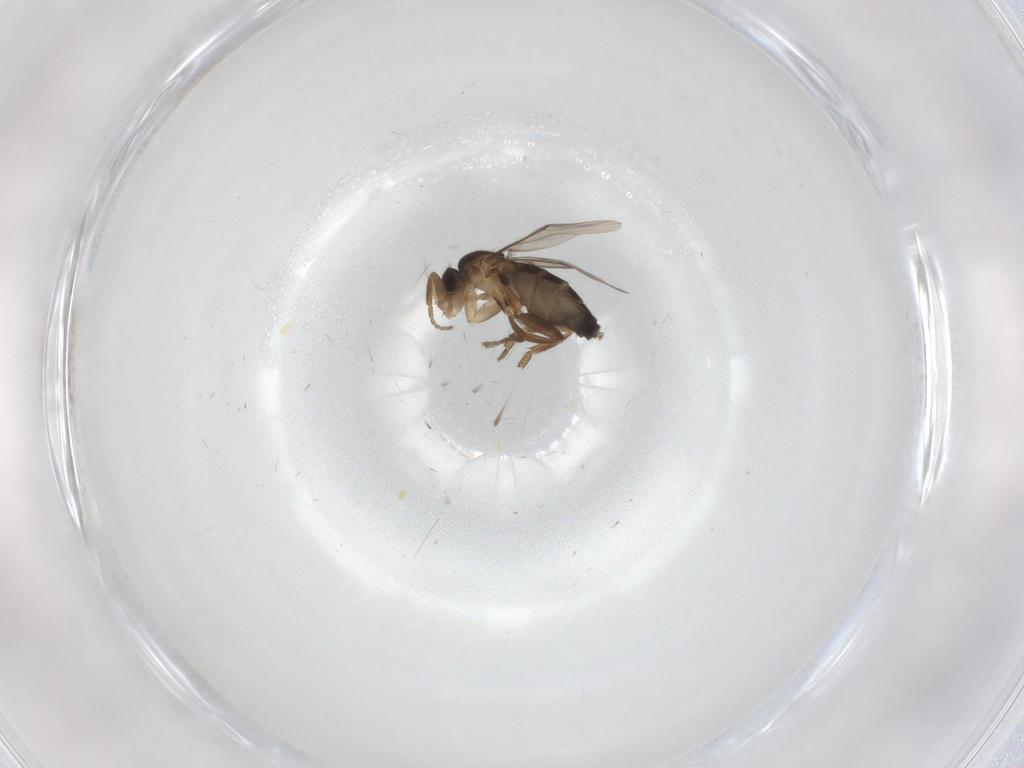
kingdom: Animalia
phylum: Arthropoda
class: Insecta
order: Diptera
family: Phoridae
